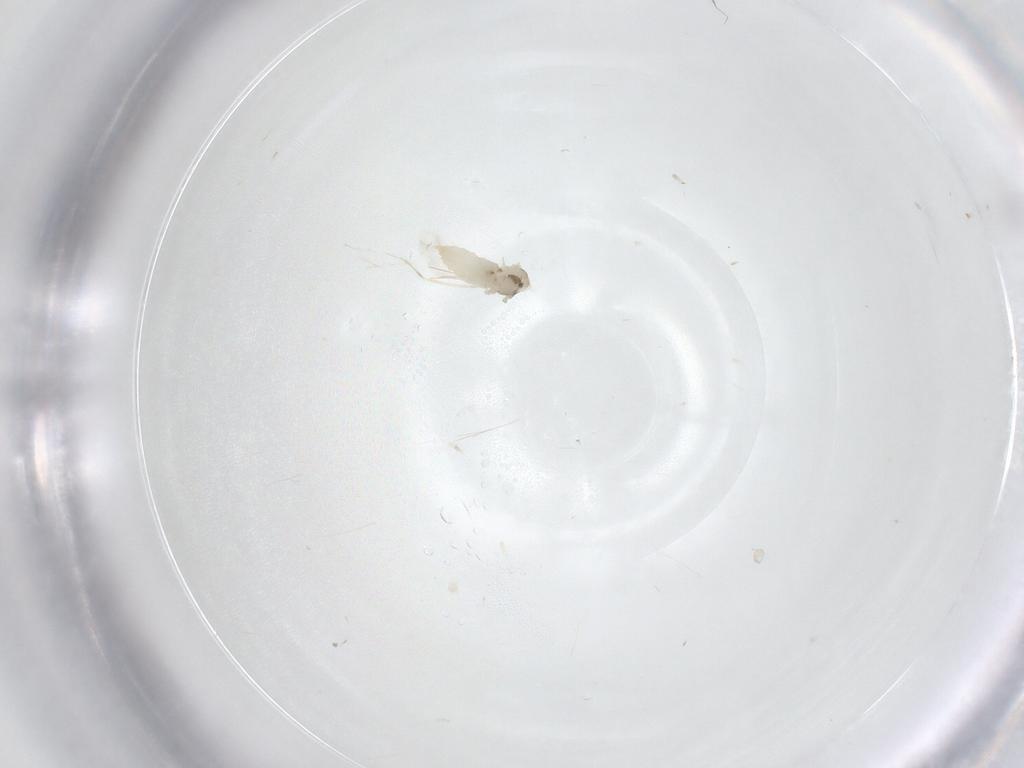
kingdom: Animalia
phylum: Arthropoda
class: Insecta
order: Diptera
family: Cecidomyiidae
